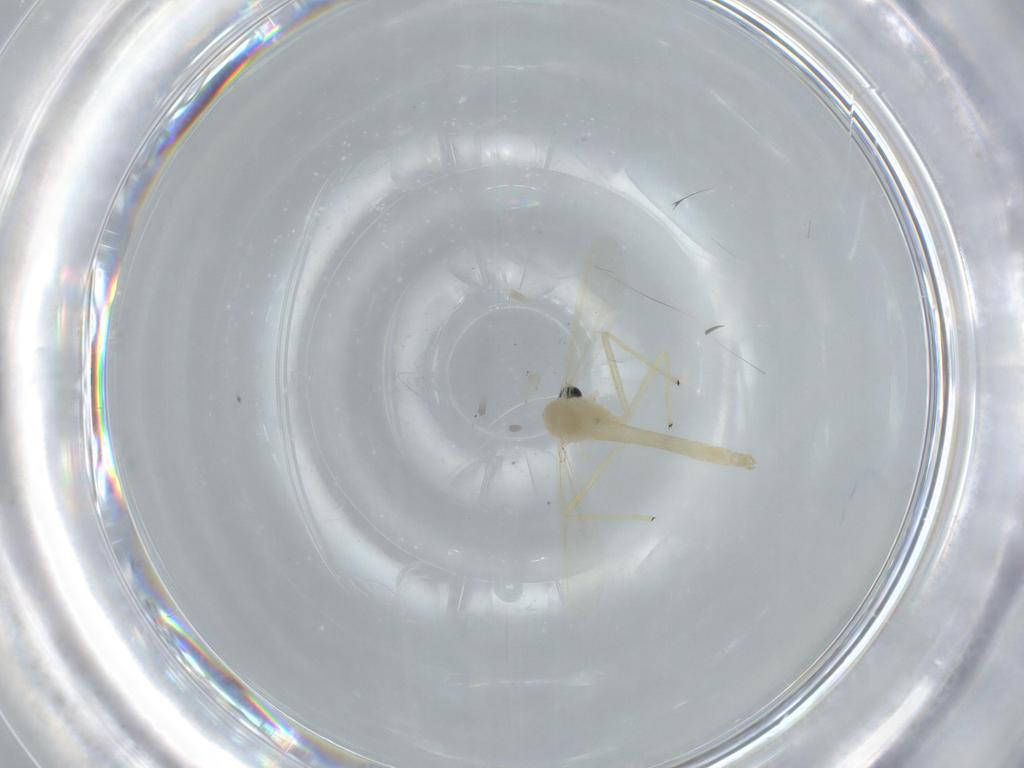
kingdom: Animalia
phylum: Arthropoda
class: Insecta
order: Diptera
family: Chironomidae
